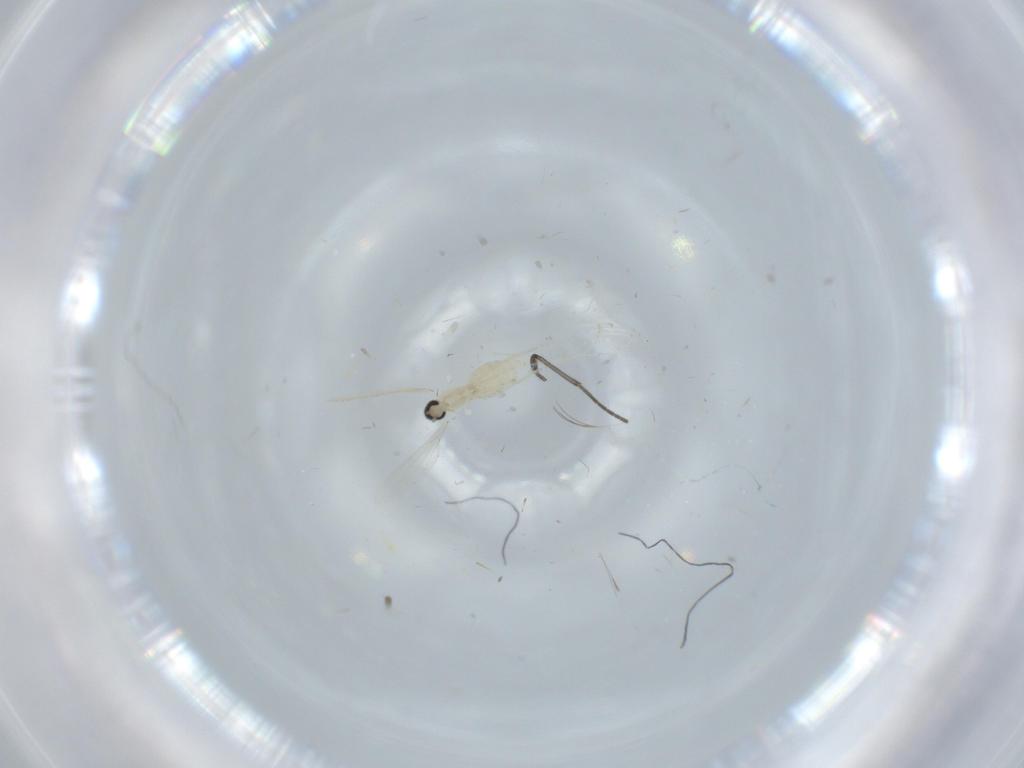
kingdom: Animalia
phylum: Arthropoda
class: Insecta
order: Diptera
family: Cecidomyiidae
